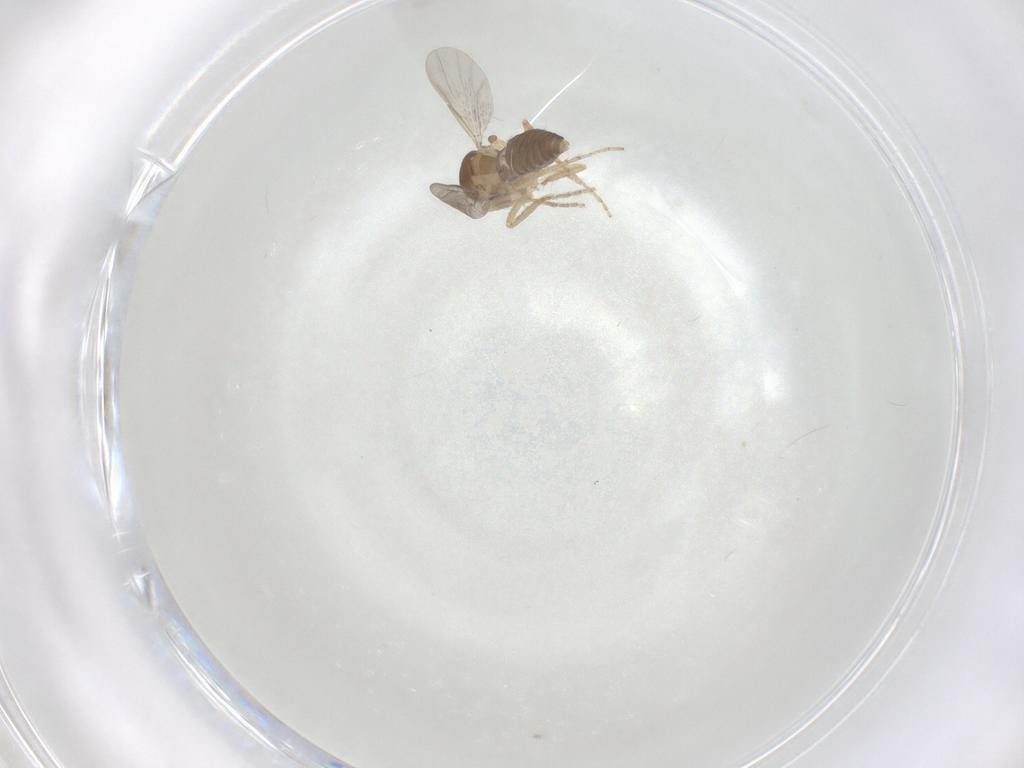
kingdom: Animalia
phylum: Arthropoda
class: Insecta
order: Diptera
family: Ceratopogonidae
